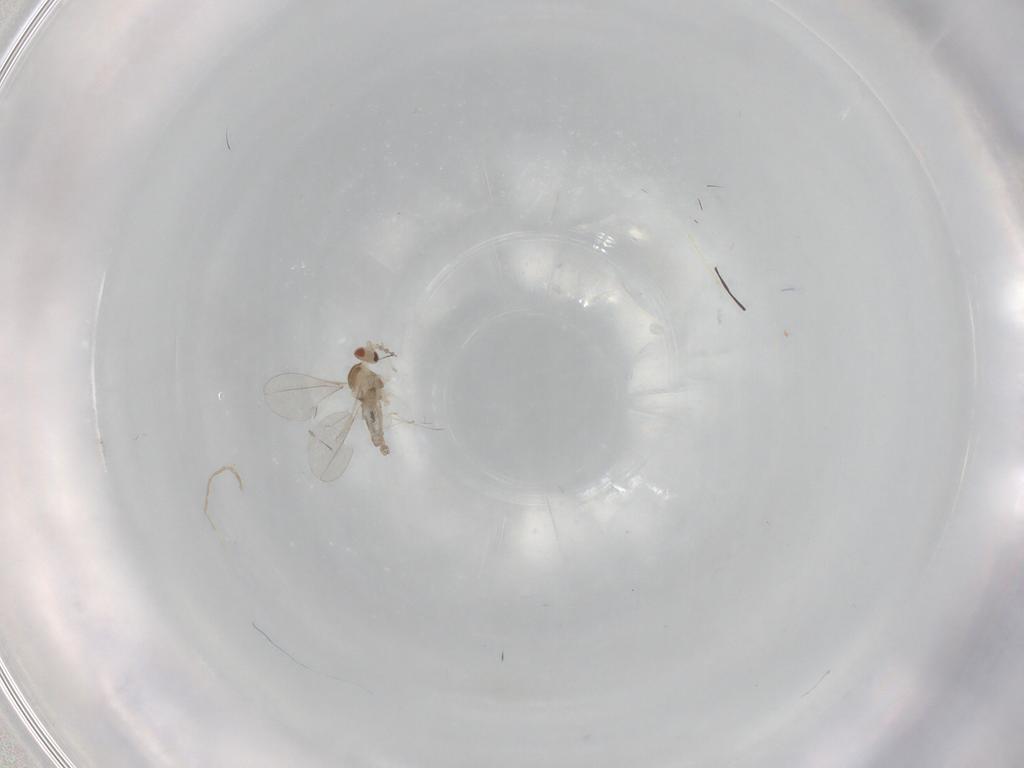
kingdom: Animalia
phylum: Arthropoda
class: Insecta
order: Diptera
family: Cecidomyiidae
